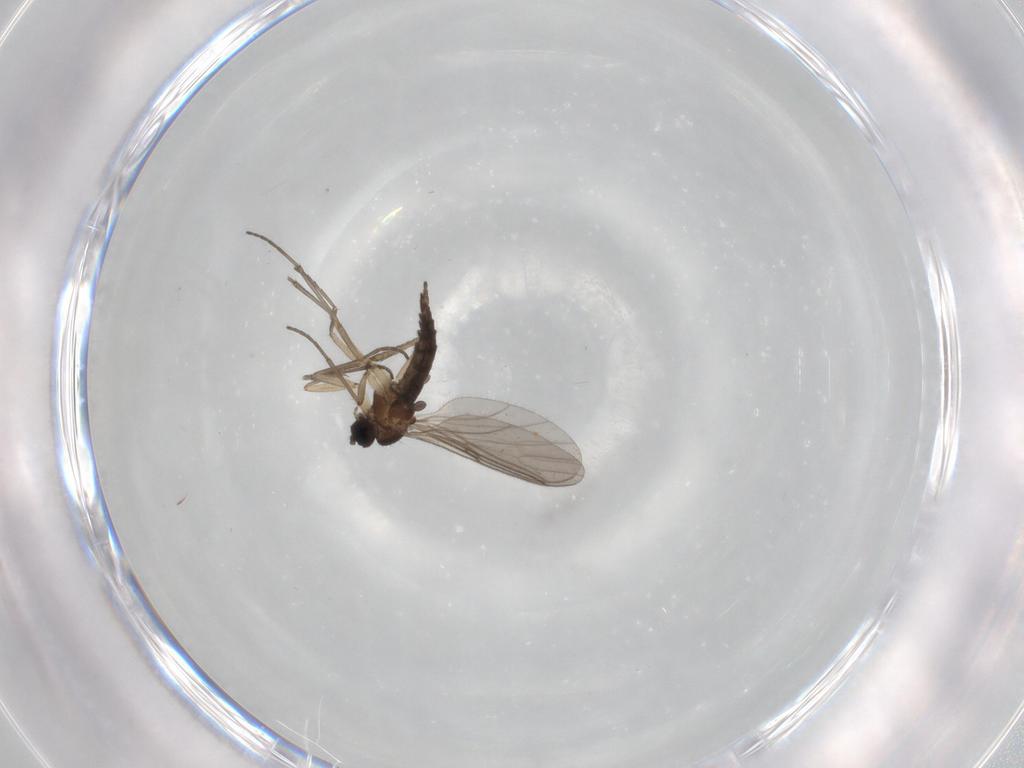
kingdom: Animalia
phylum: Arthropoda
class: Insecta
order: Diptera
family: Sciaridae
